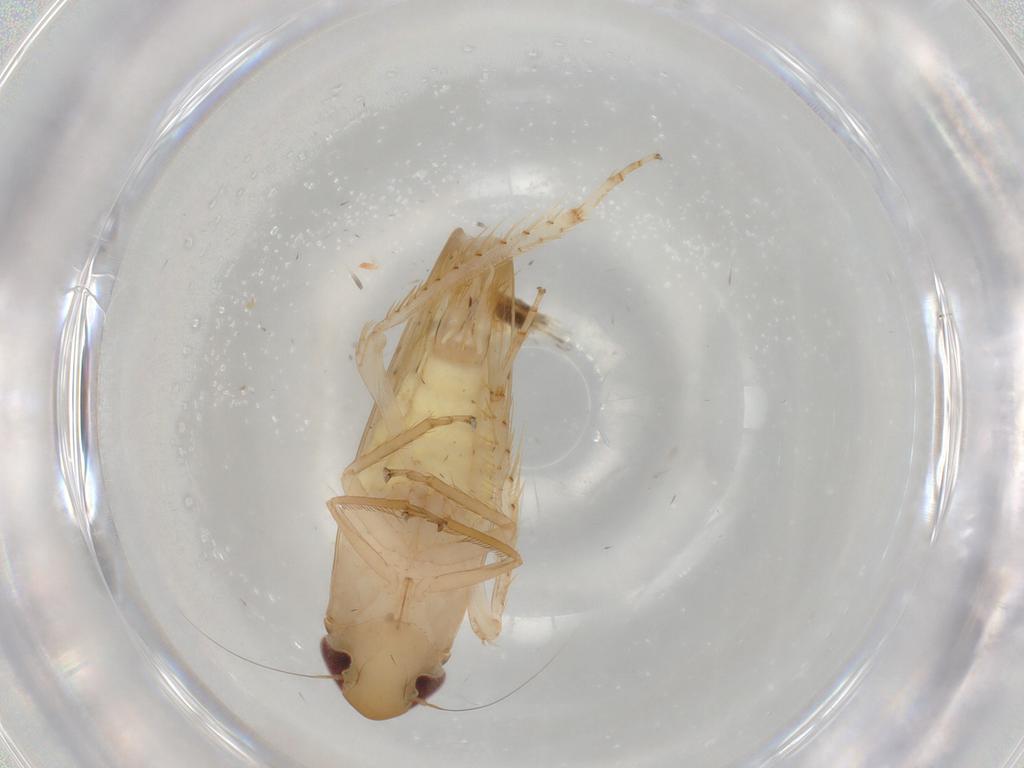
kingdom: Animalia
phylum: Arthropoda
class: Insecta
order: Hemiptera
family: Cicadellidae
